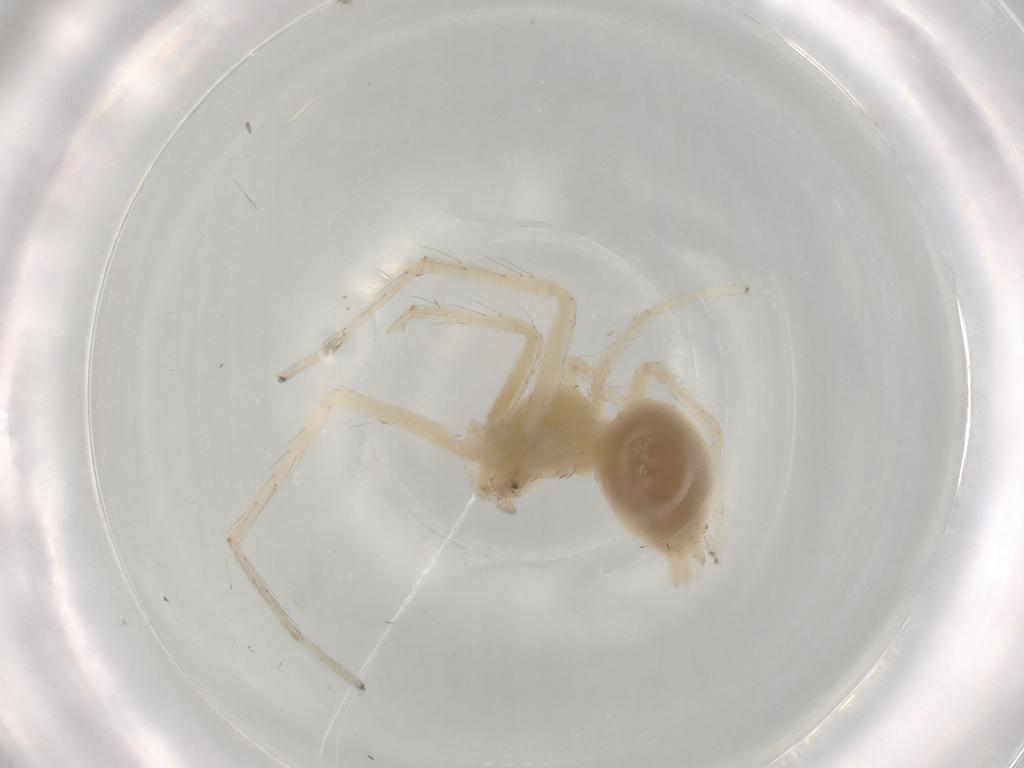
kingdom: Animalia
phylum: Arthropoda
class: Arachnida
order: Araneae
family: Anyphaenidae
